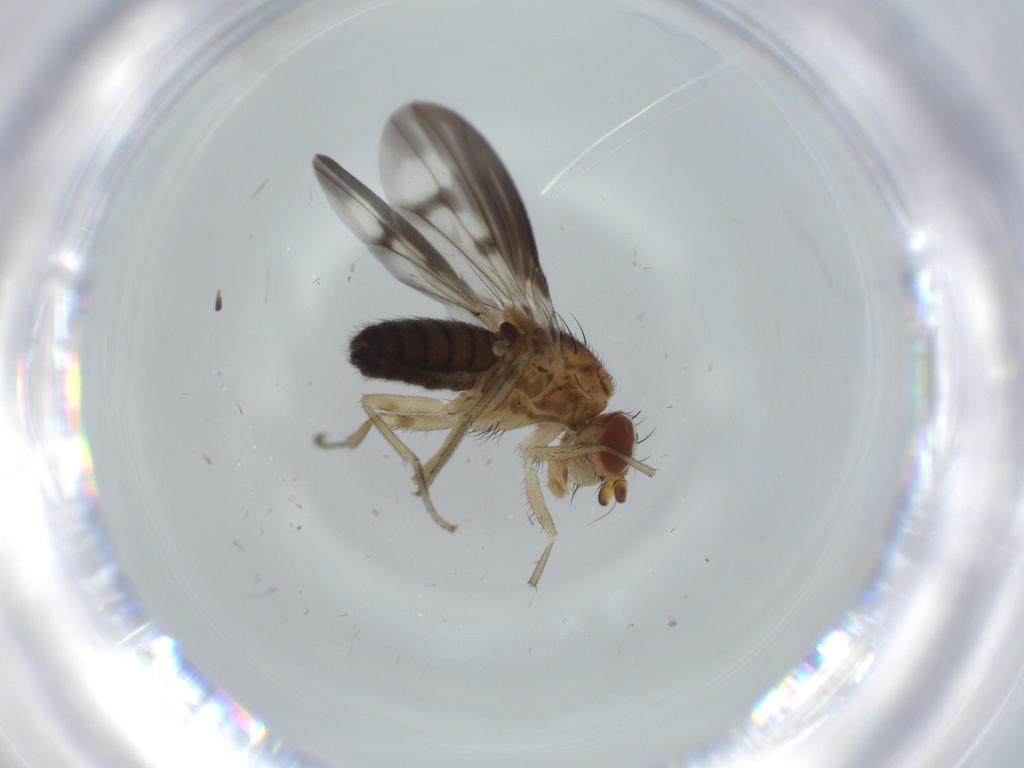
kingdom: Animalia
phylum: Arthropoda
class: Insecta
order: Diptera
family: Heleomyzidae
